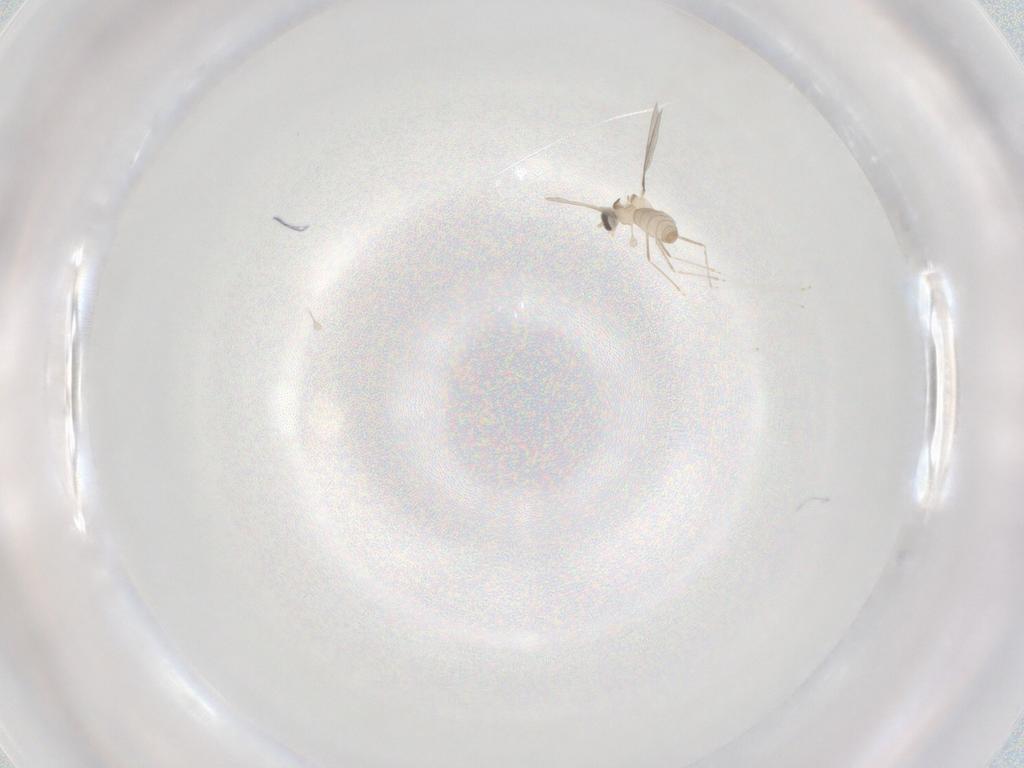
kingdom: Animalia
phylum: Arthropoda
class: Insecta
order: Diptera
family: Cecidomyiidae
